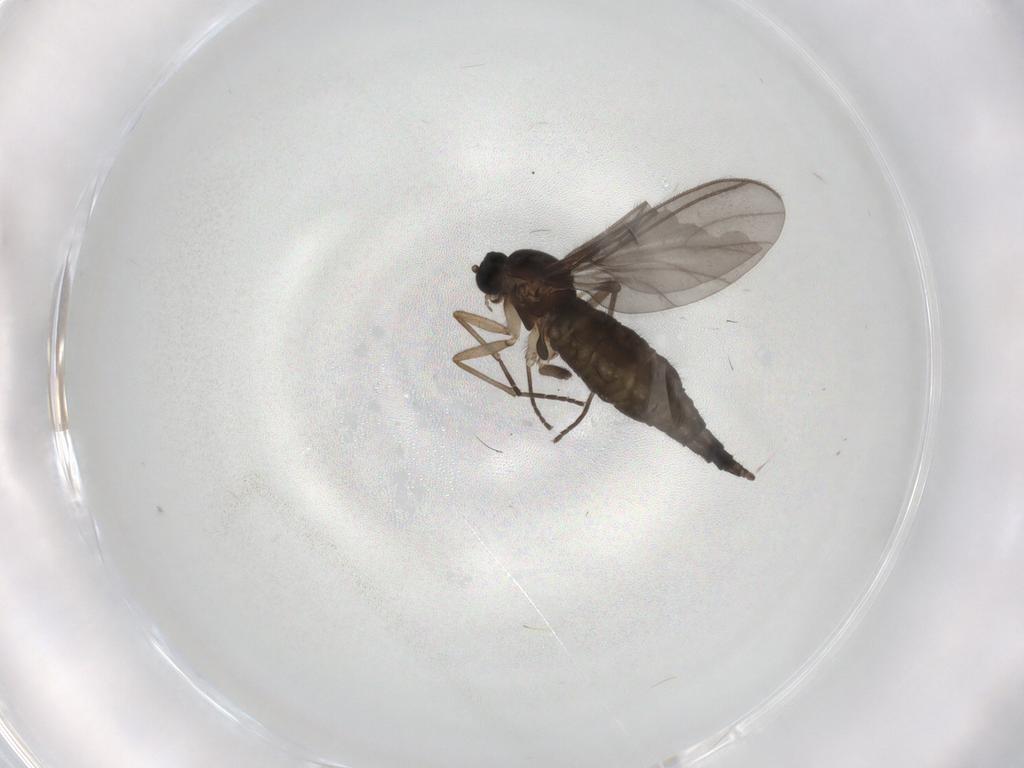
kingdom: Animalia
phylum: Arthropoda
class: Insecta
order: Diptera
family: Sciaridae
